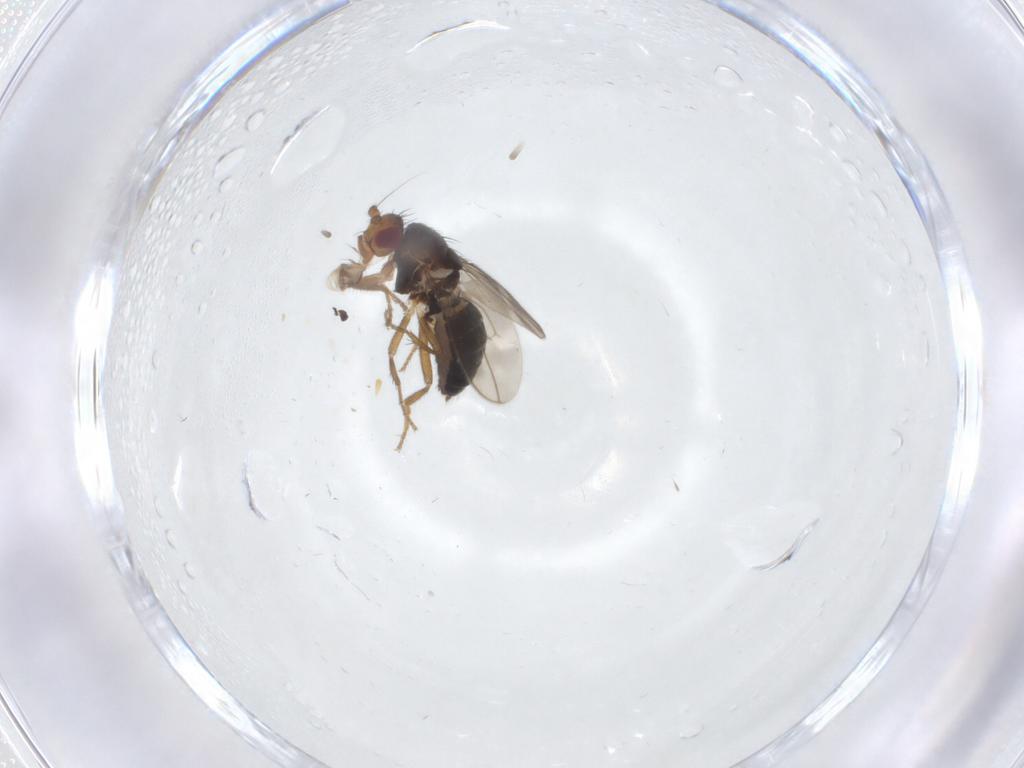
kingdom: Animalia
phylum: Arthropoda
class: Insecta
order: Diptera
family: Sphaeroceridae
